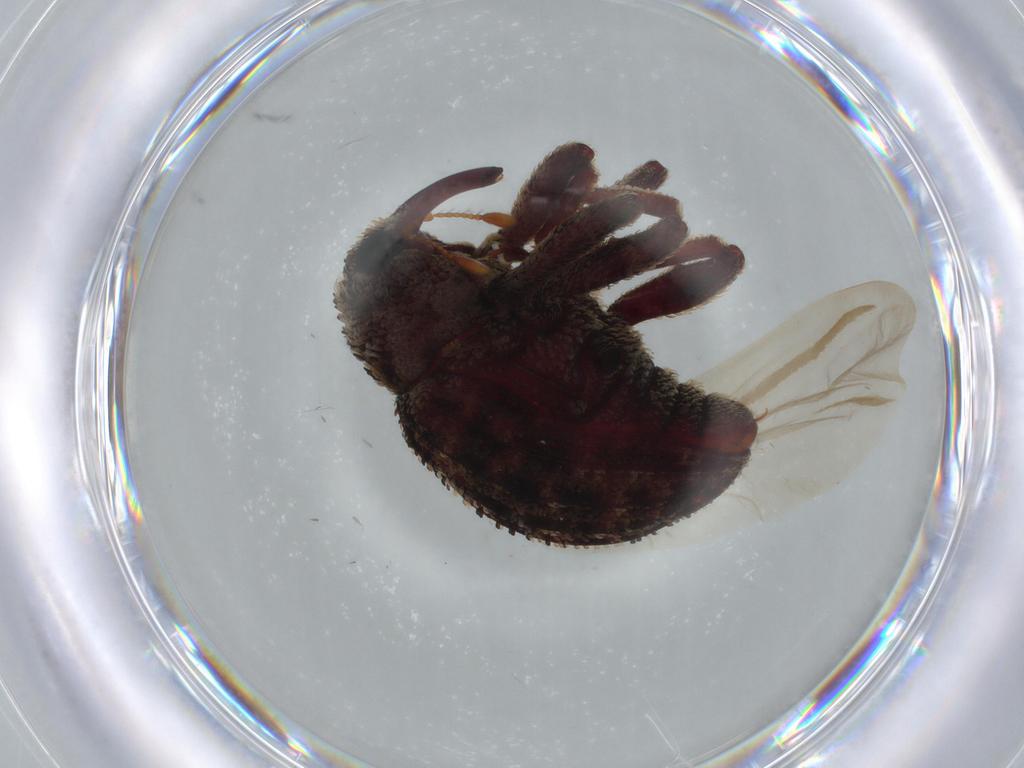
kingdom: Animalia
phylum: Arthropoda
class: Insecta
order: Coleoptera
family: Curculionidae
